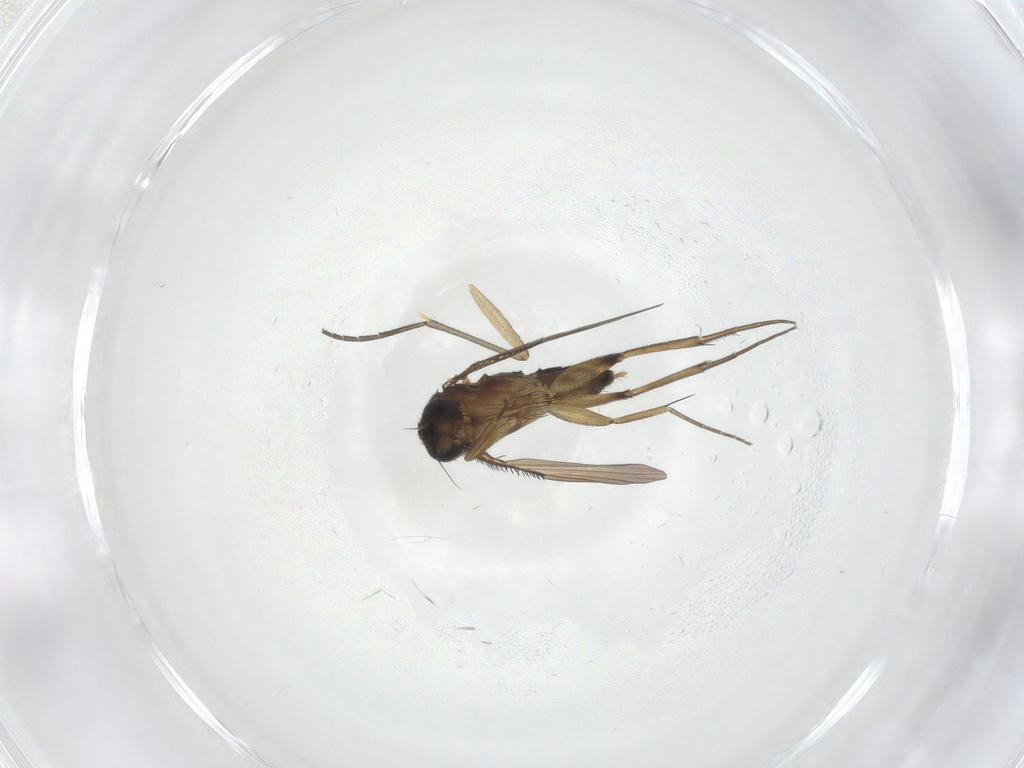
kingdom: Animalia
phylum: Arthropoda
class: Insecta
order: Diptera
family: Phoridae
